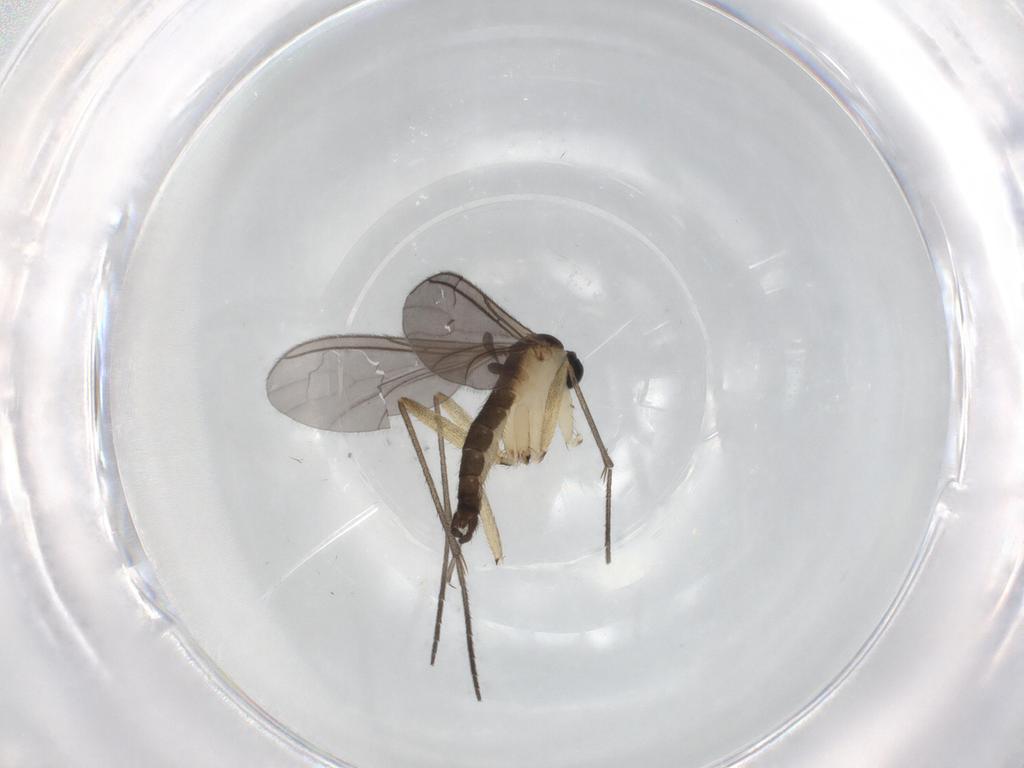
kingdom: Animalia
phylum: Arthropoda
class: Insecta
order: Diptera
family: Sciaridae
